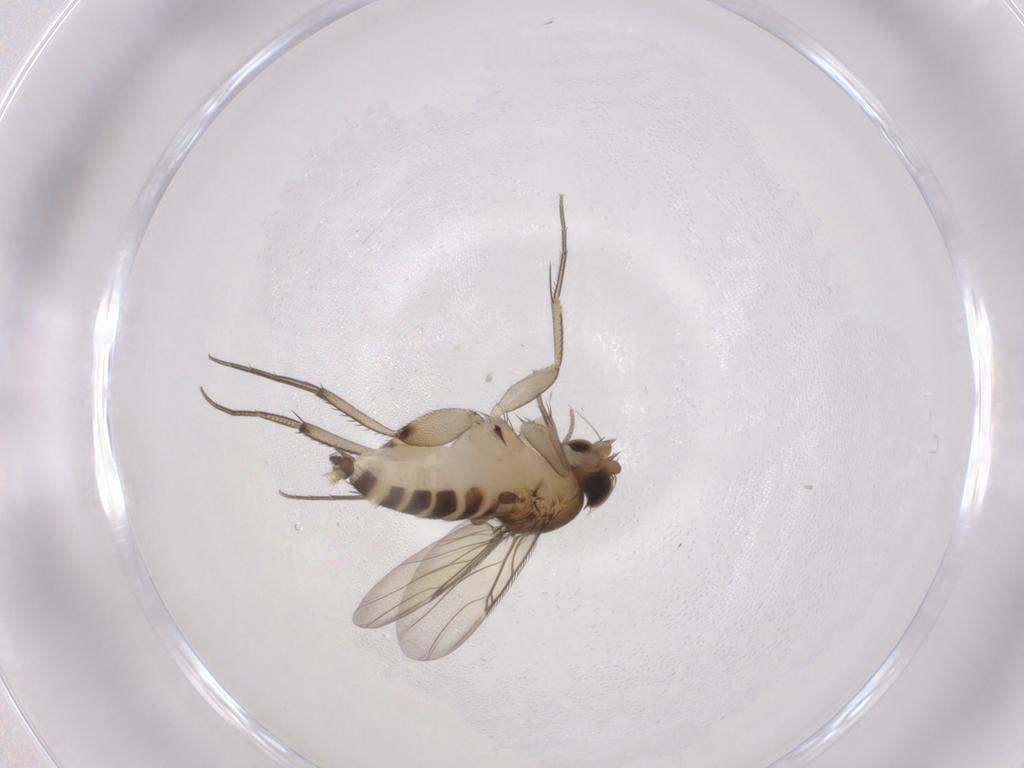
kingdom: Animalia
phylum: Arthropoda
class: Insecta
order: Diptera
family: Phoridae
